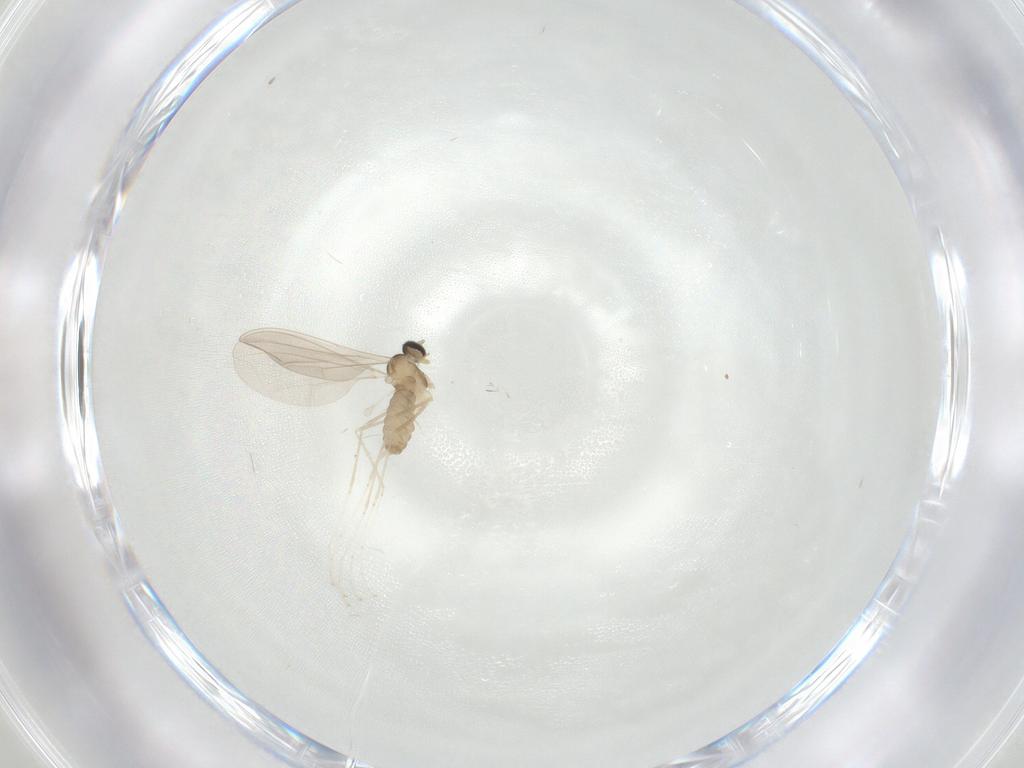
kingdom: Animalia
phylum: Arthropoda
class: Insecta
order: Diptera
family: Cecidomyiidae
